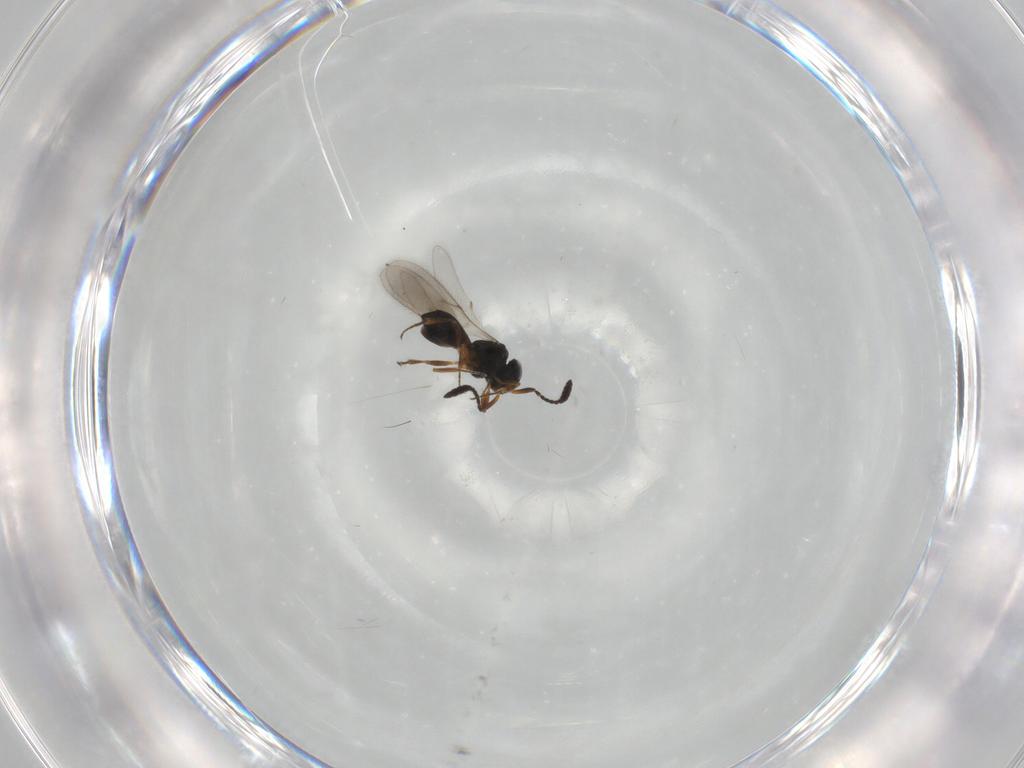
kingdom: Animalia
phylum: Arthropoda
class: Insecta
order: Hymenoptera
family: Scelionidae
